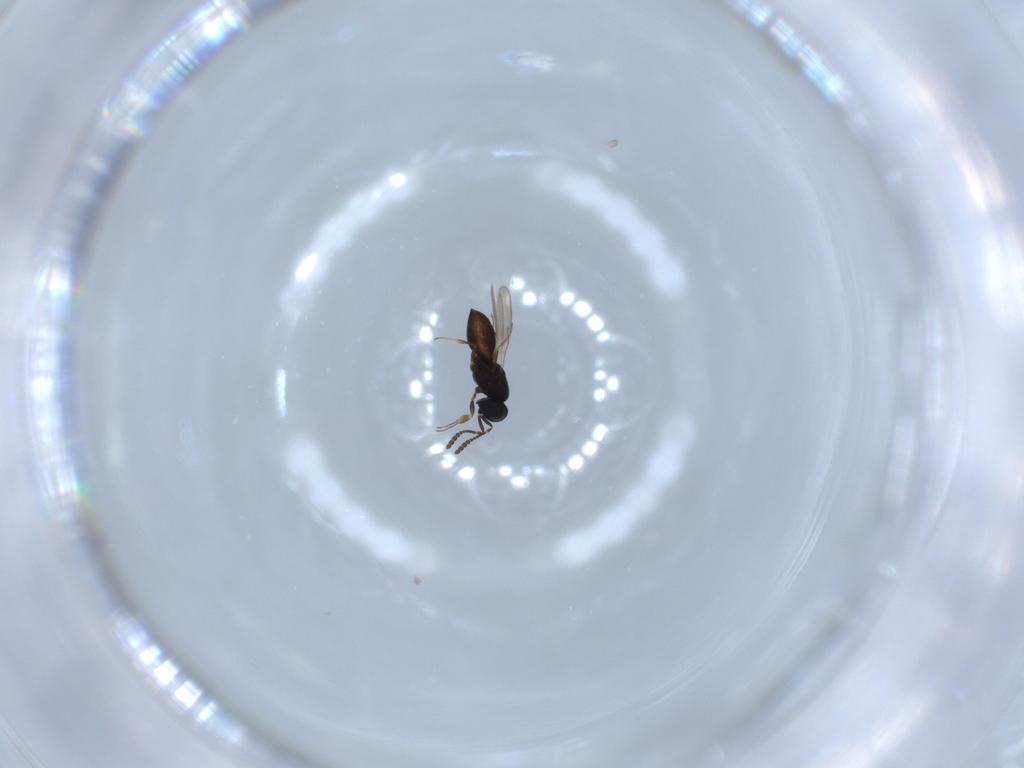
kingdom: Animalia
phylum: Arthropoda
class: Insecta
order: Hymenoptera
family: Scelionidae
